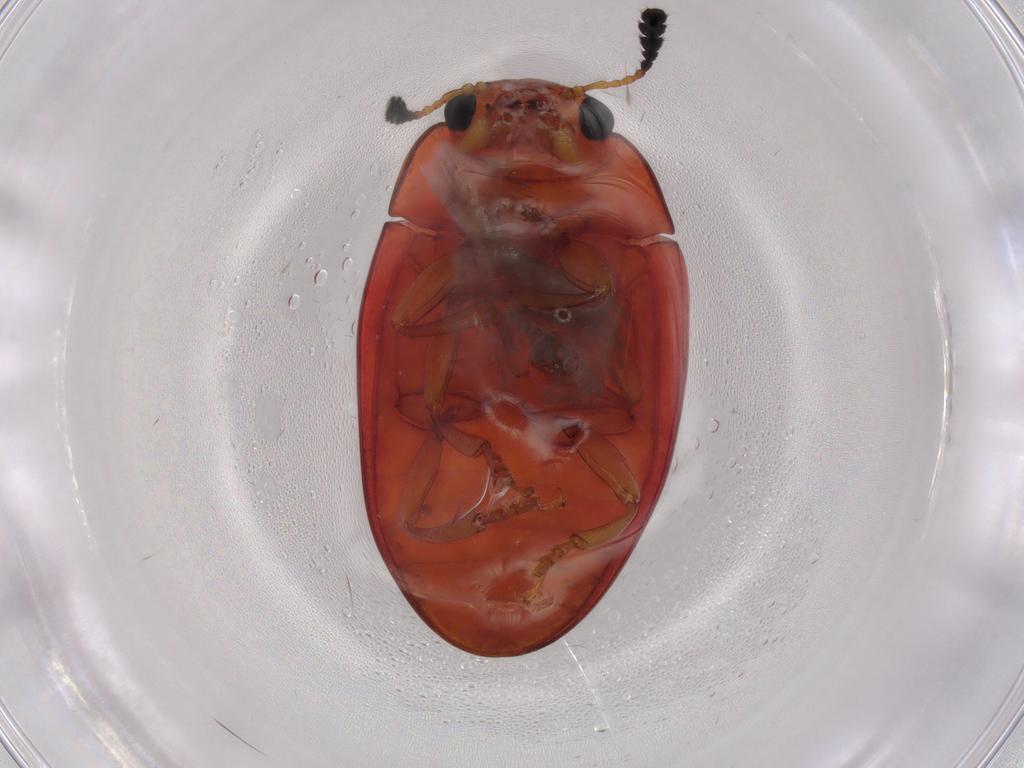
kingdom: Animalia
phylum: Arthropoda
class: Insecta
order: Coleoptera
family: Erotylidae
